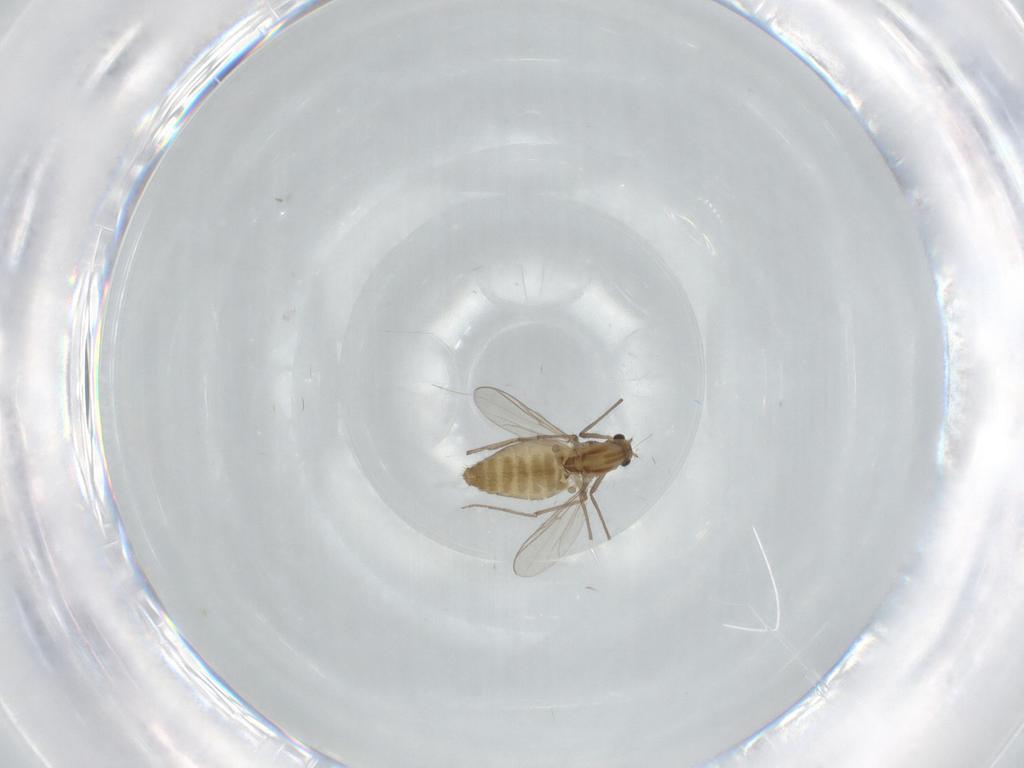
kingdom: Animalia
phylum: Arthropoda
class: Insecta
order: Diptera
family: Chironomidae
